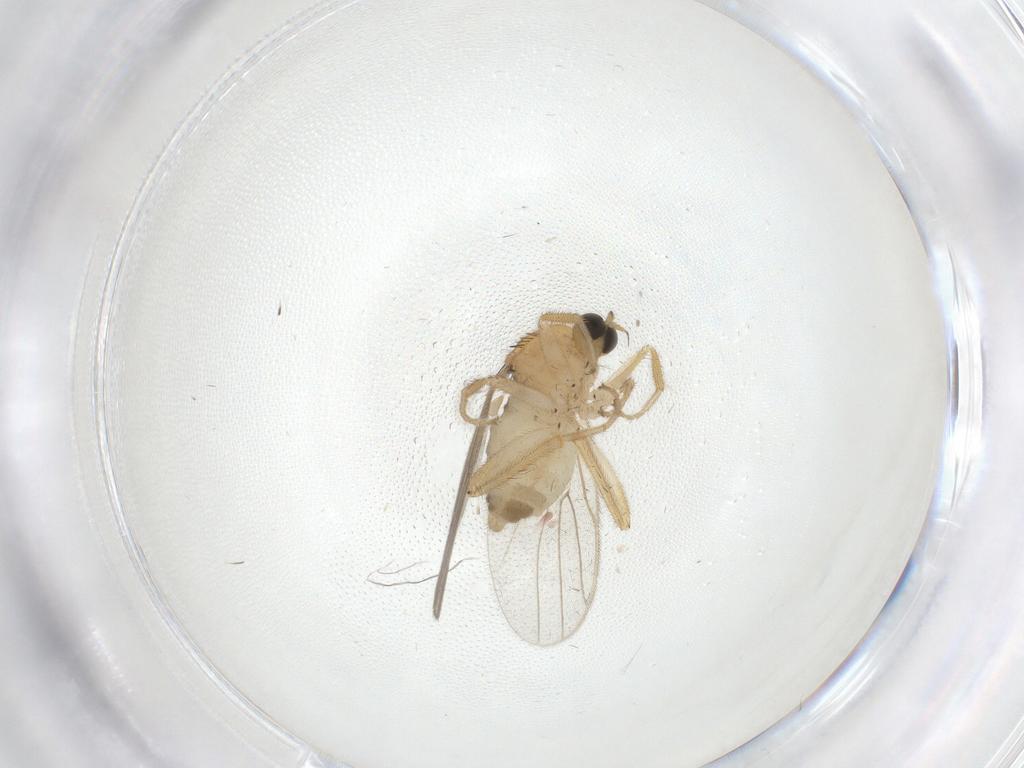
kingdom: Animalia
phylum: Arthropoda
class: Insecta
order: Diptera
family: Hybotidae
